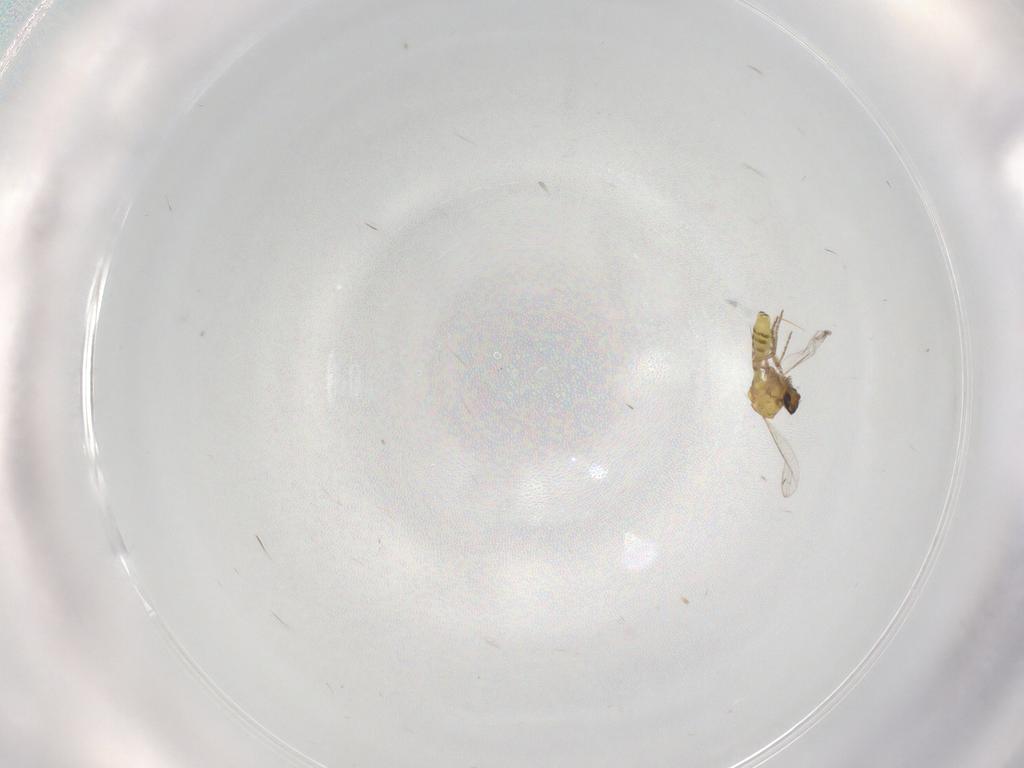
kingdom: Animalia
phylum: Arthropoda
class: Insecta
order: Diptera
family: Ceratopogonidae
